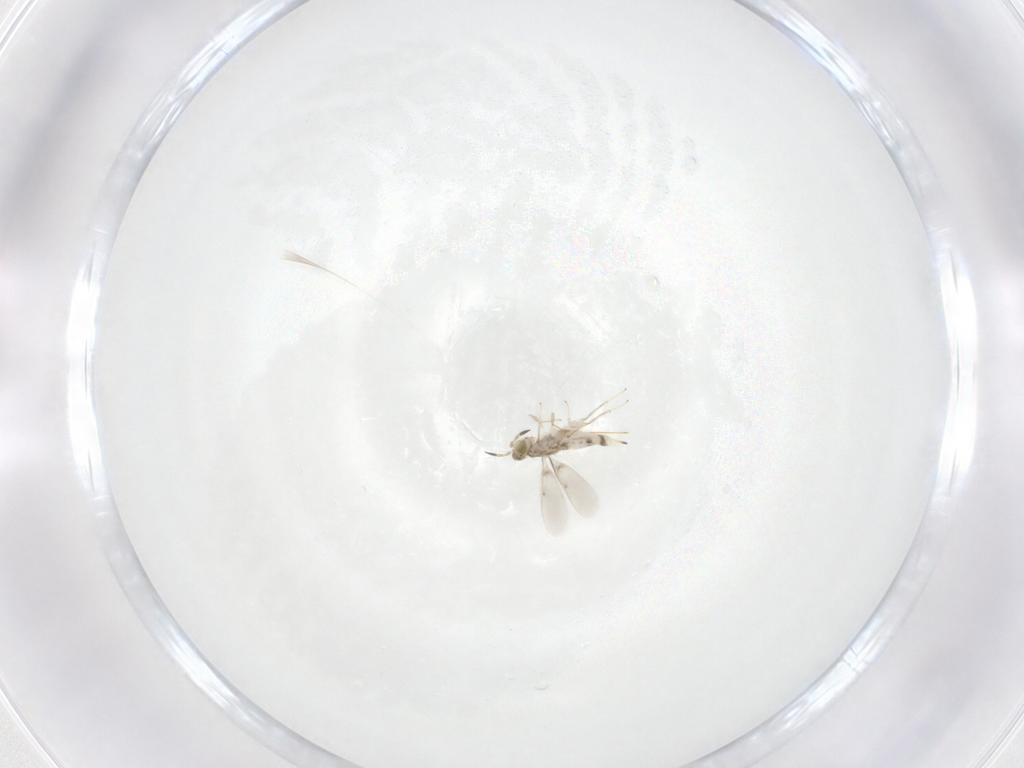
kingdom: Animalia
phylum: Arthropoda
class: Insecta
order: Hymenoptera
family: Aphelinidae
